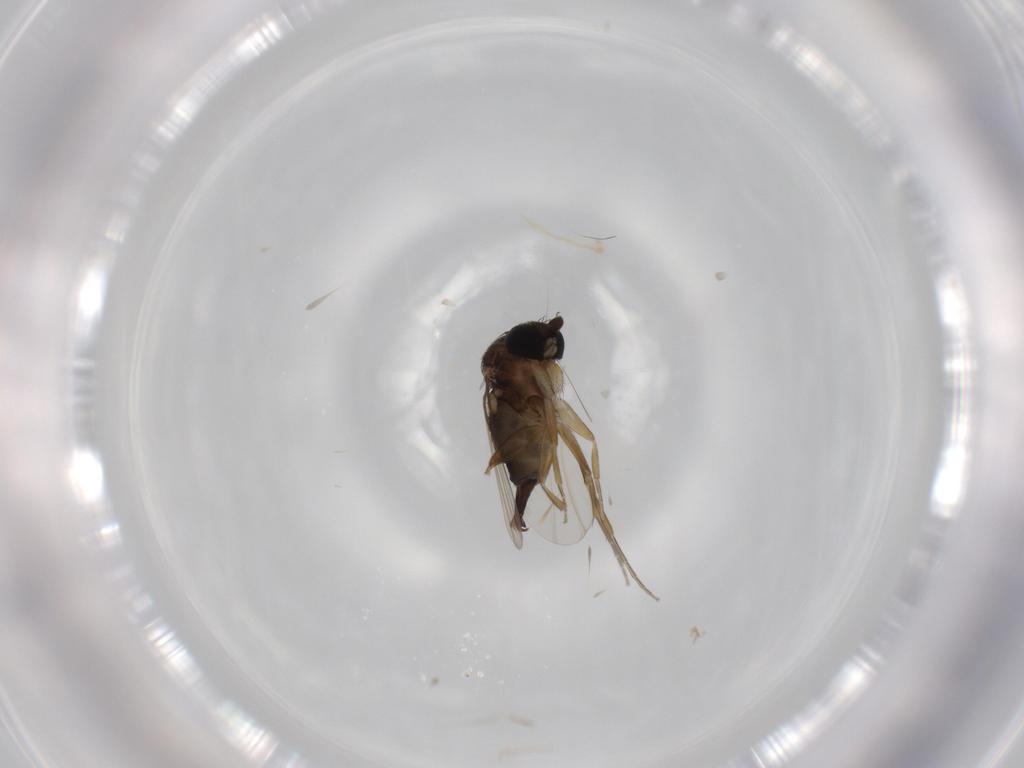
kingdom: Animalia
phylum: Arthropoda
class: Insecta
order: Diptera
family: Phoridae
